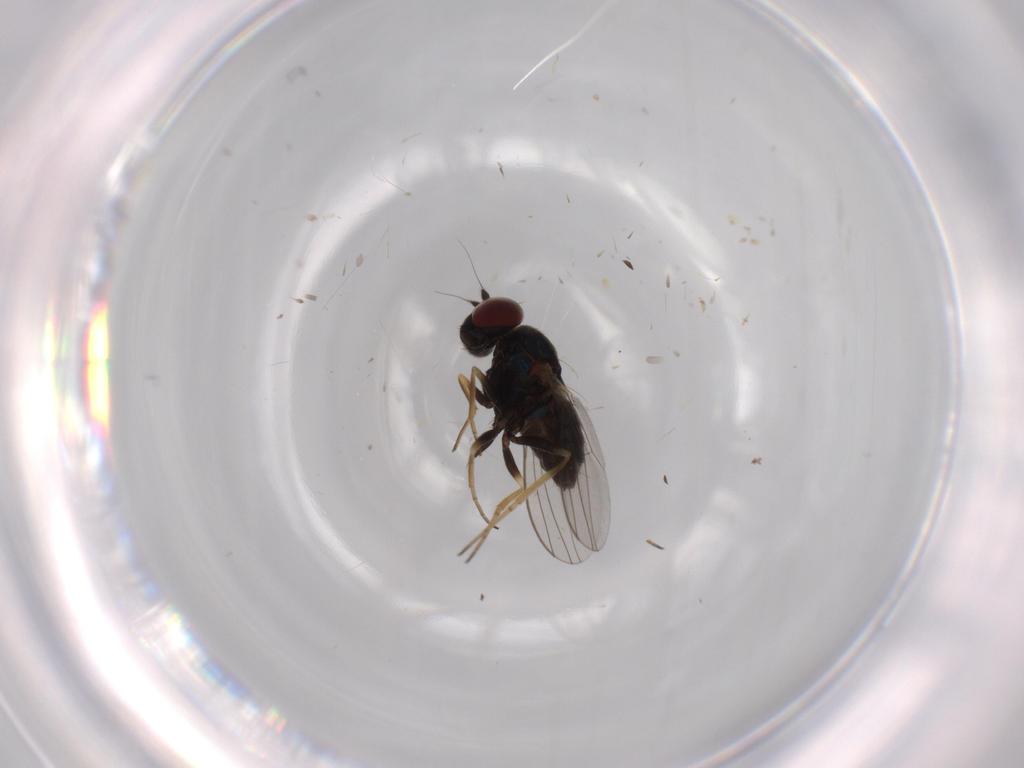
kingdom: Animalia
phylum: Arthropoda
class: Insecta
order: Diptera
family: Dolichopodidae
